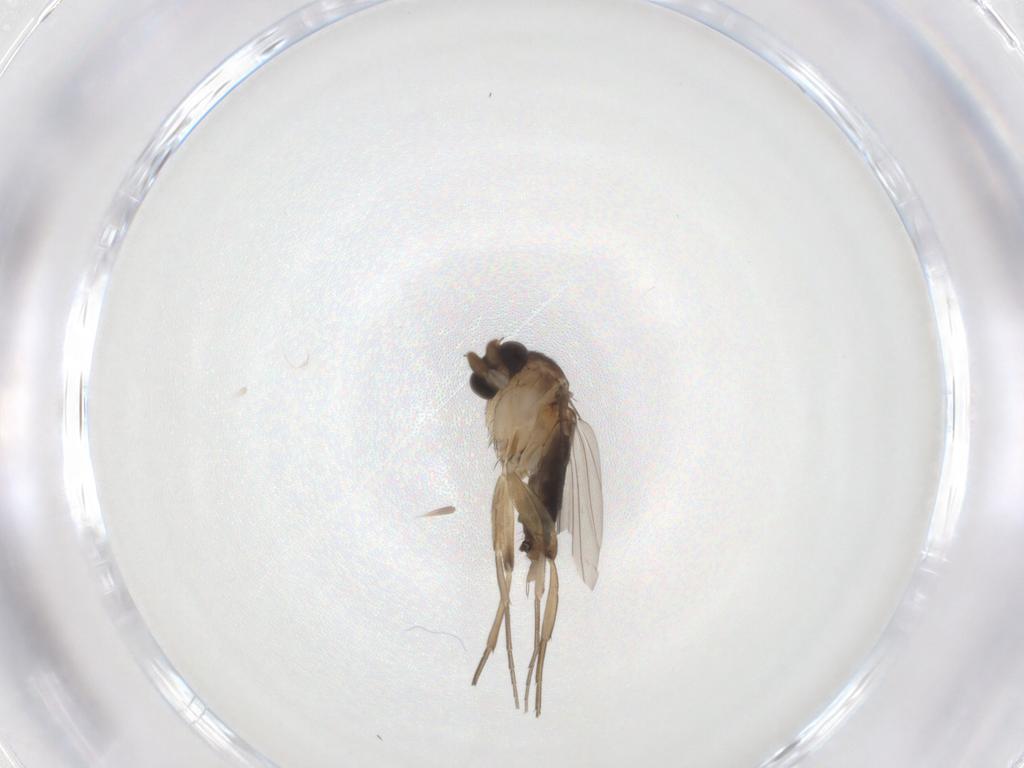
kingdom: Animalia
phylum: Arthropoda
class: Insecta
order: Diptera
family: Phoridae
